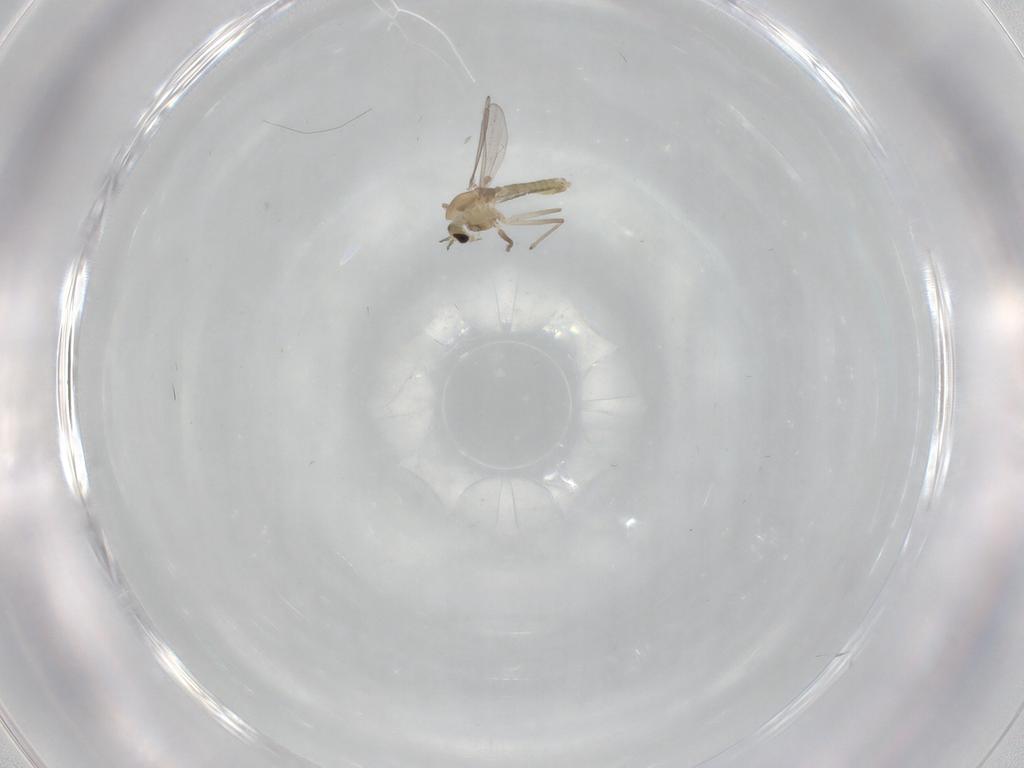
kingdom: Animalia
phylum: Arthropoda
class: Insecta
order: Diptera
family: Chironomidae
